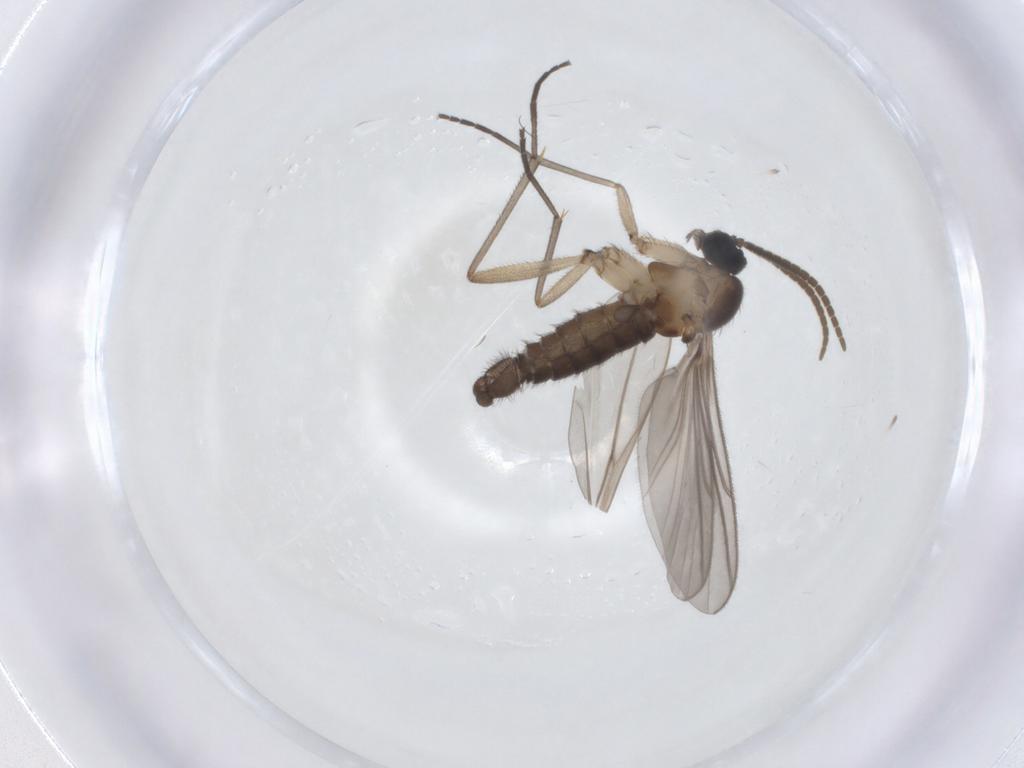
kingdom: Animalia
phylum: Arthropoda
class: Insecta
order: Diptera
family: Sciaridae
